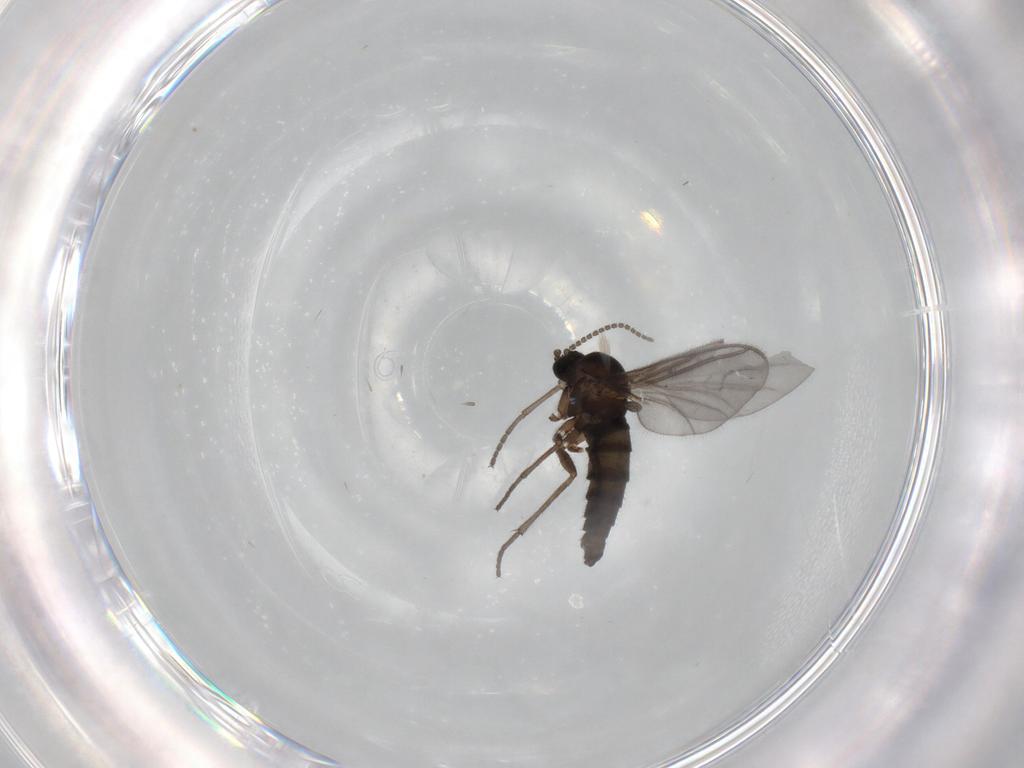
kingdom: Animalia
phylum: Arthropoda
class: Insecta
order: Diptera
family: Sciaridae
